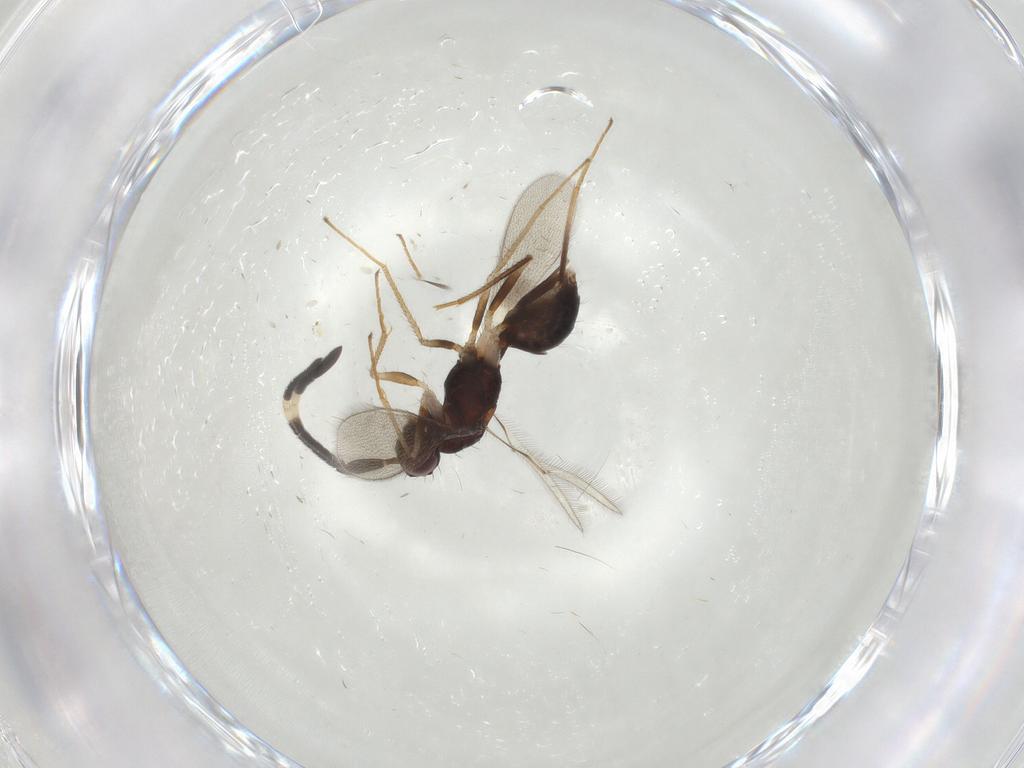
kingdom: Animalia
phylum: Arthropoda
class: Insecta
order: Hymenoptera
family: Mymaridae
